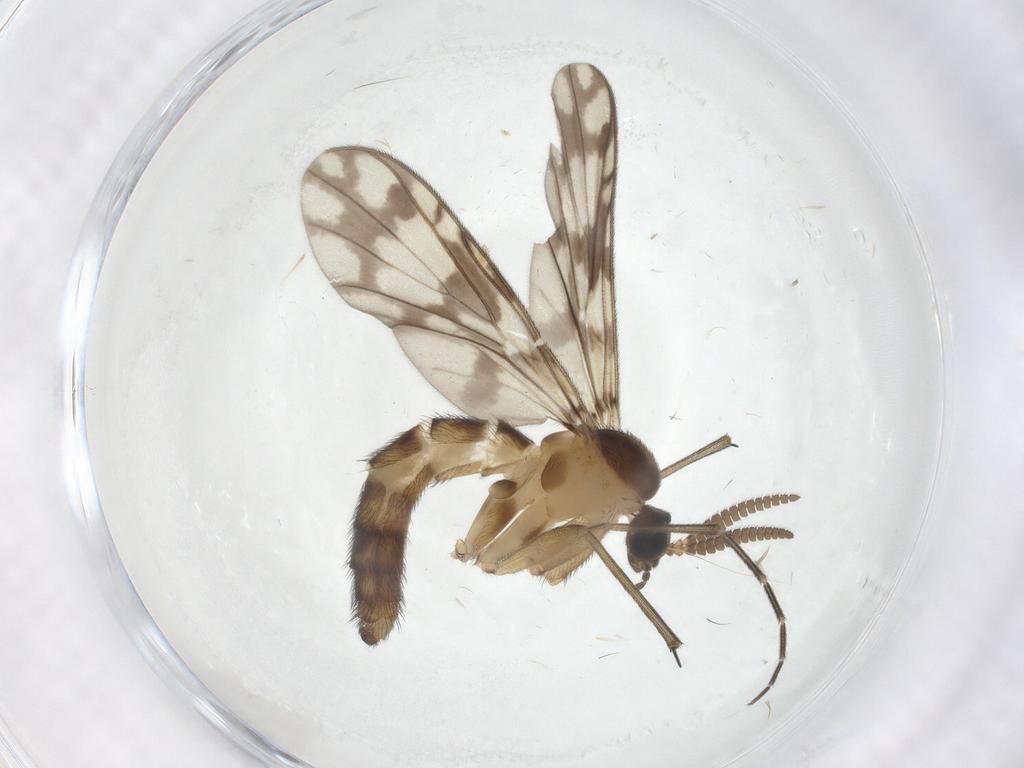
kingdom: Animalia
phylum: Arthropoda
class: Insecta
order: Diptera
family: Keroplatidae
